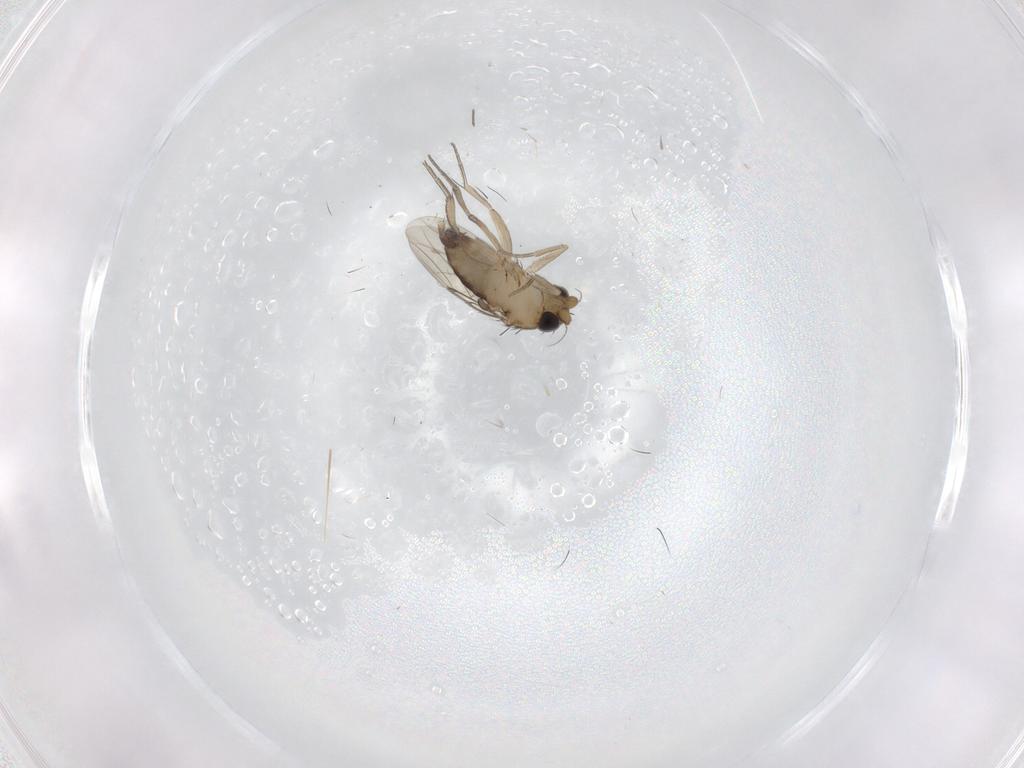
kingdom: Animalia
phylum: Arthropoda
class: Insecta
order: Diptera
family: Phoridae
